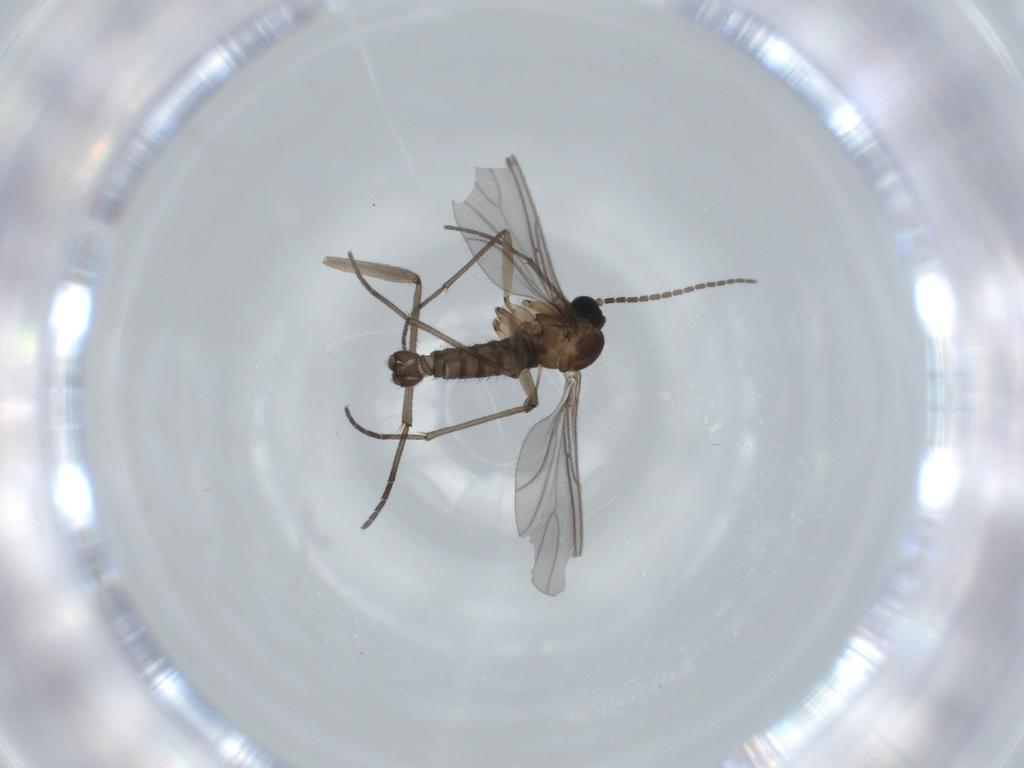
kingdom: Animalia
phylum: Arthropoda
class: Insecta
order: Diptera
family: Sciaridae
